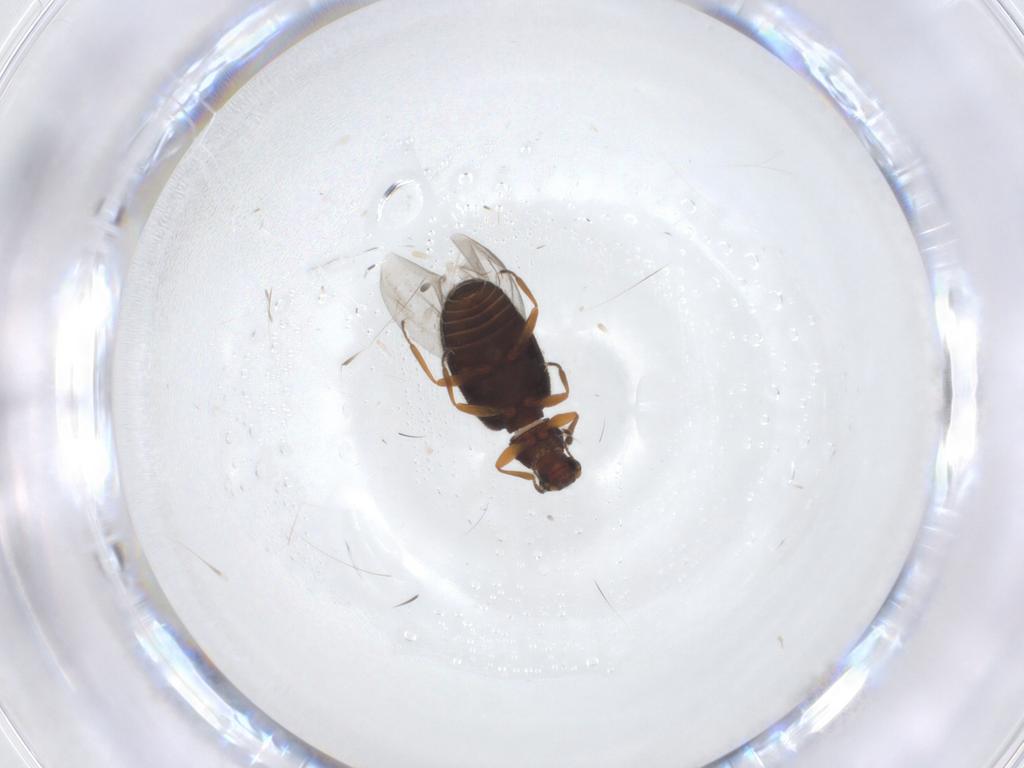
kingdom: Animalia
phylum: Arthropoda
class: Insecta
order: Coleoptera
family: Latridiidae
